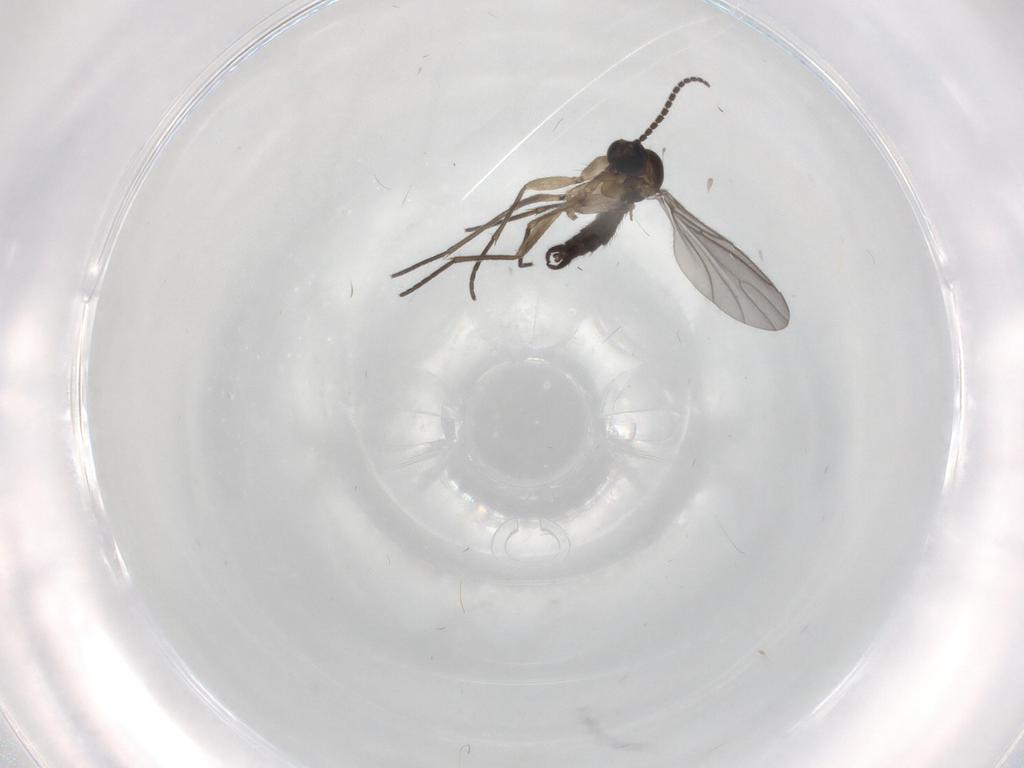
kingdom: Animalia
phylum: Arthropoda
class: Insecta
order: Diptera
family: Sciaridae
